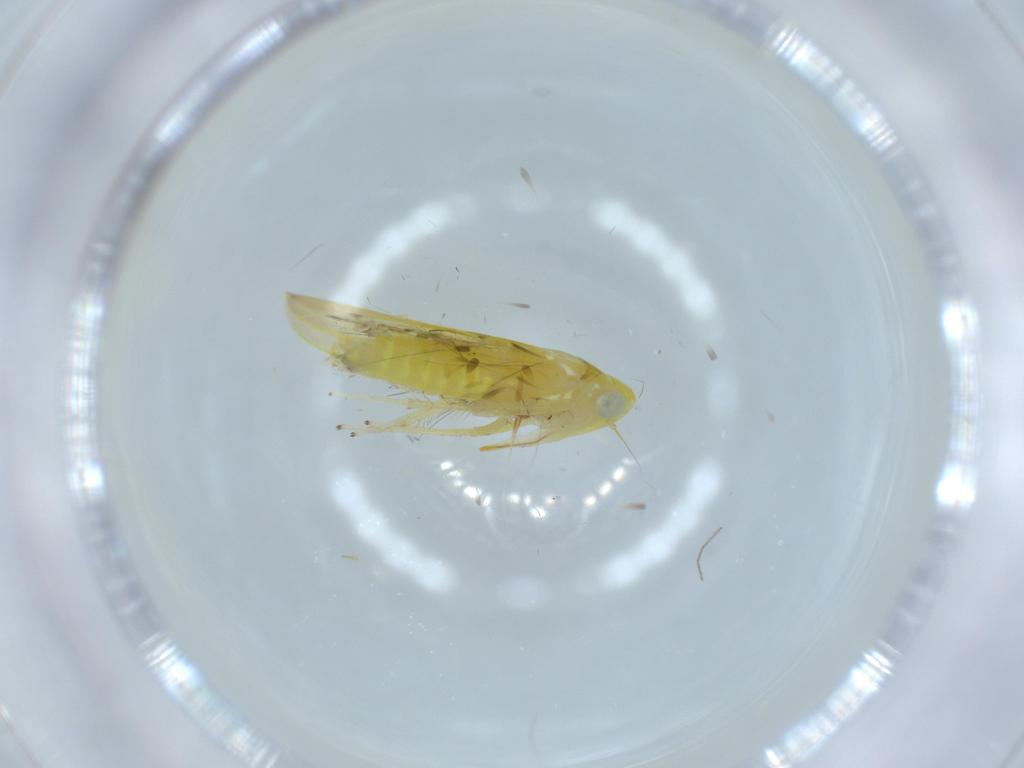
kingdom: Animalia
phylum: Arthropoda
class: Insecta
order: Hemiptera
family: Cicadellidae
